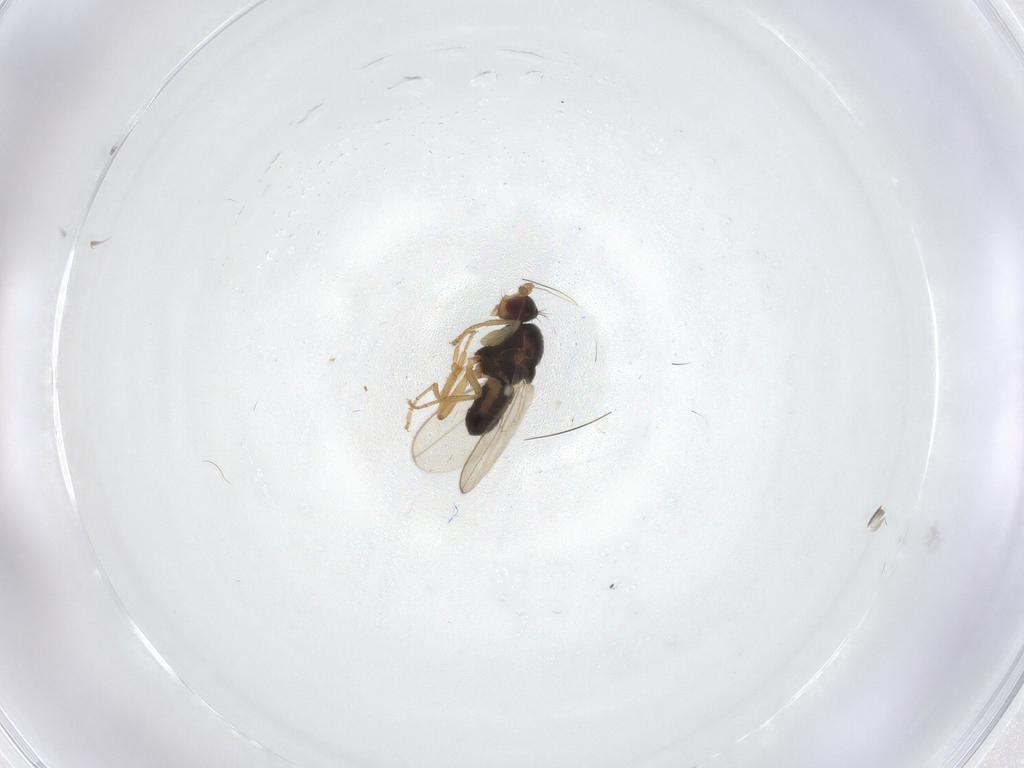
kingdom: Animalia
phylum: Arthropoda
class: Insecta
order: Diptera
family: Sphaeroceridae
